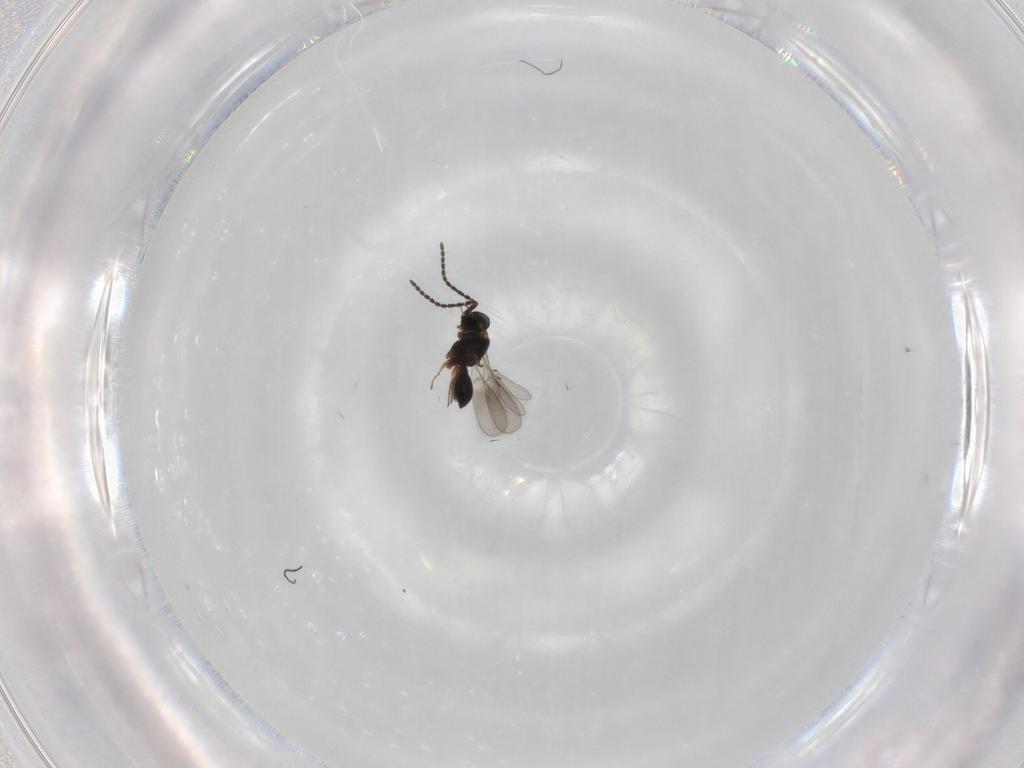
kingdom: Animalia
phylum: Arthropoda
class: Insecta
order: Hymenoptera
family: Scelionidae
